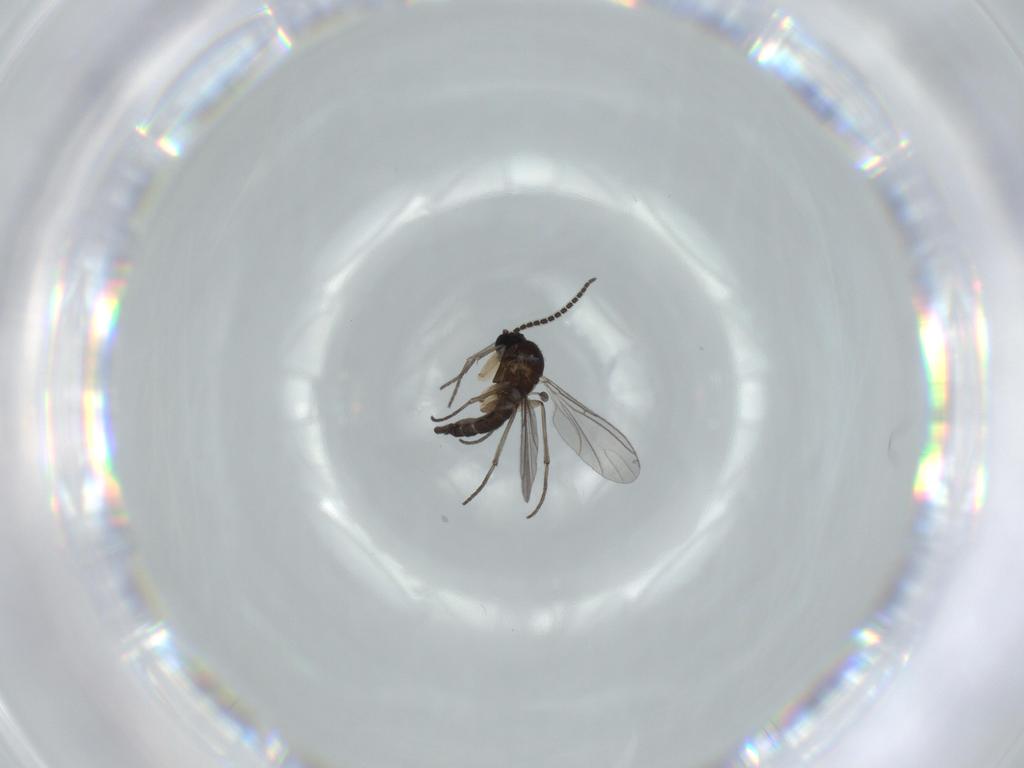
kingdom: Animalia
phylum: Arthropoda
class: Insecta
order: Diptera
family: Sciaridae
